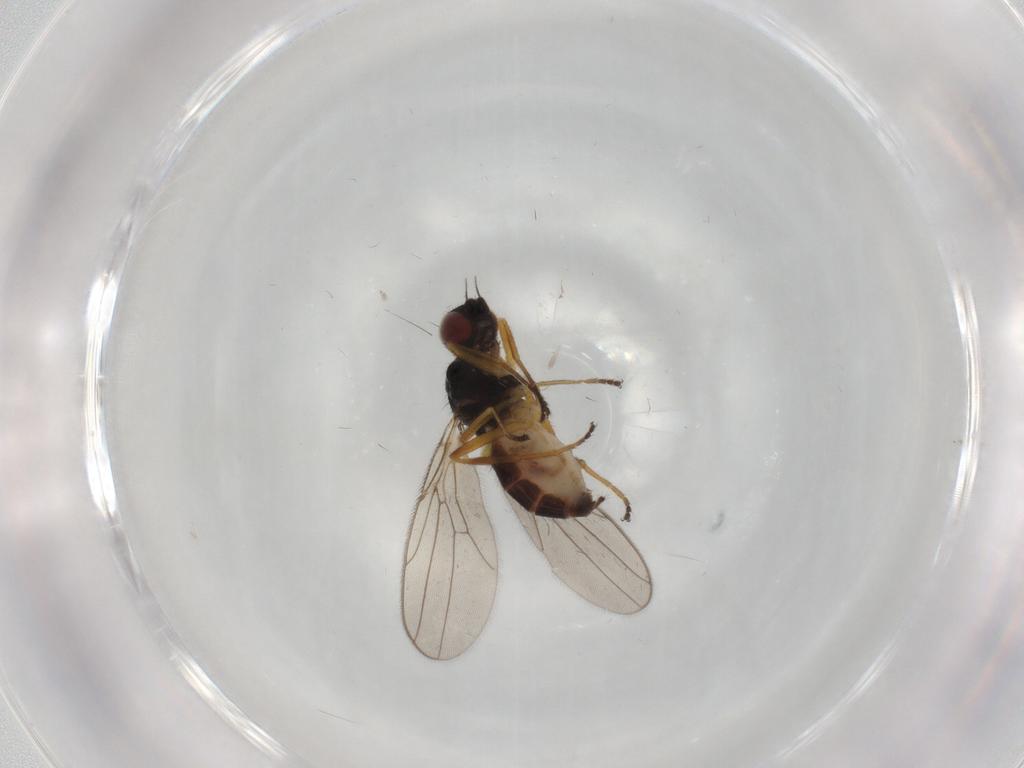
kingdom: Animalia
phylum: Arthropoda
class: Insecta
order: Diptera
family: Chloropidae
